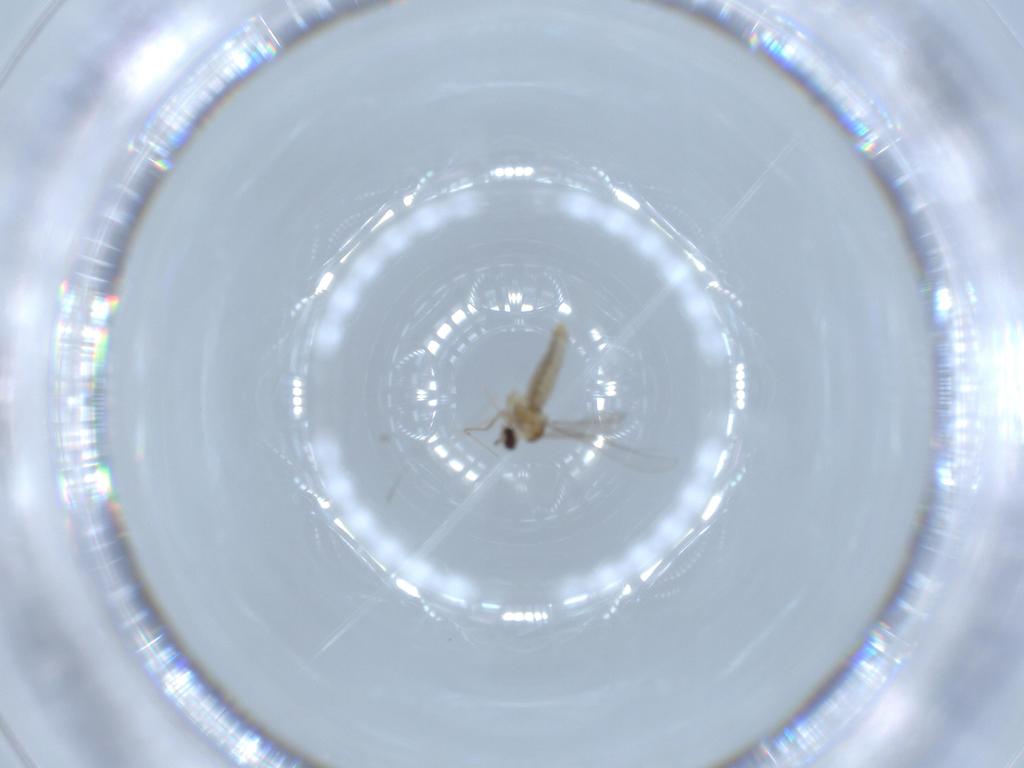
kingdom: Animalia
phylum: Arthropoda
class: Insecta
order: Diptera
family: Cecidomyiidae
